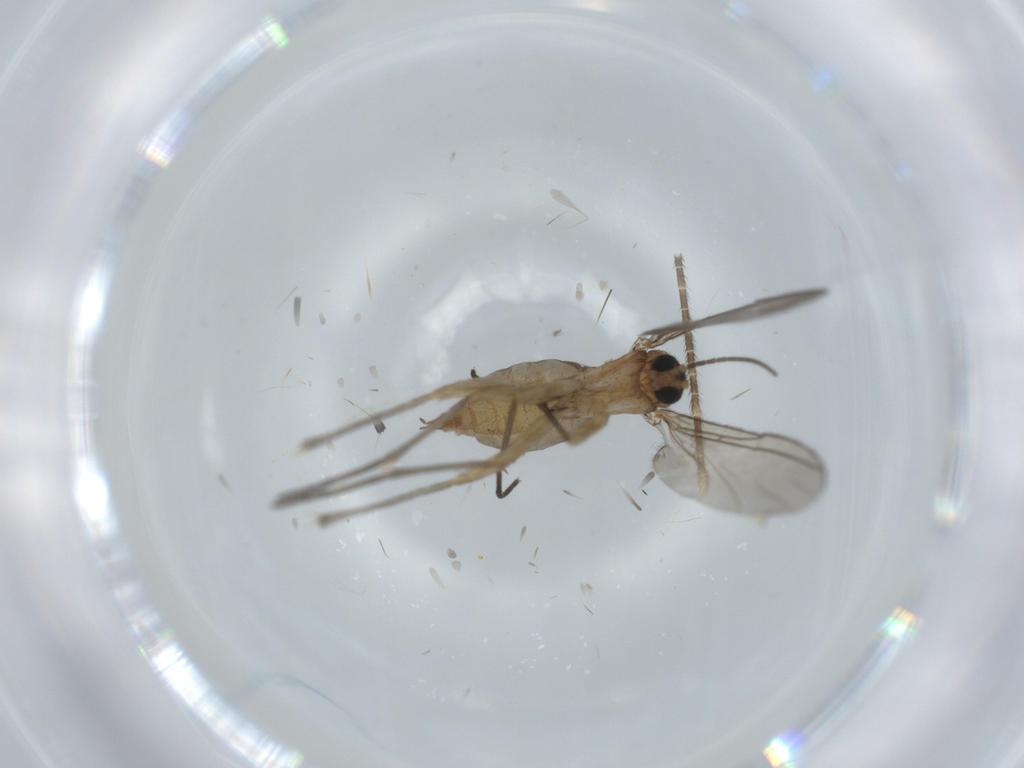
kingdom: Animalia
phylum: Arthropoda
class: Insecta
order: Diptera
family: Sciaridae
